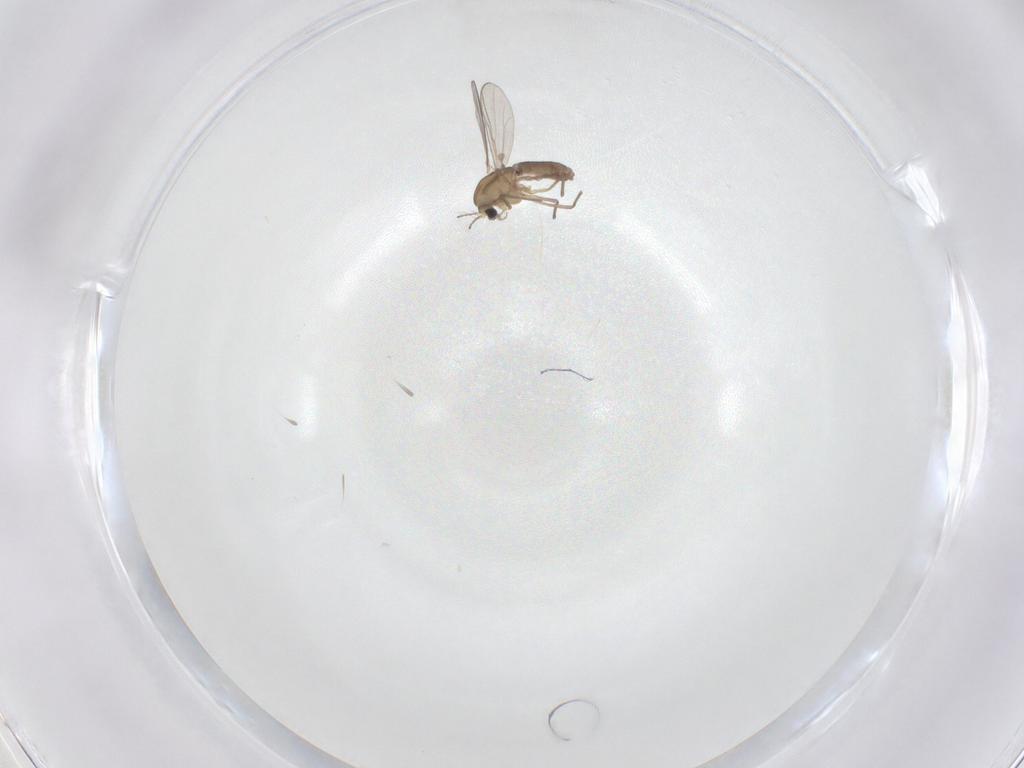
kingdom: Animalia
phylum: Arthropoda
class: Insecta
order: Diptera
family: Chironomidae
